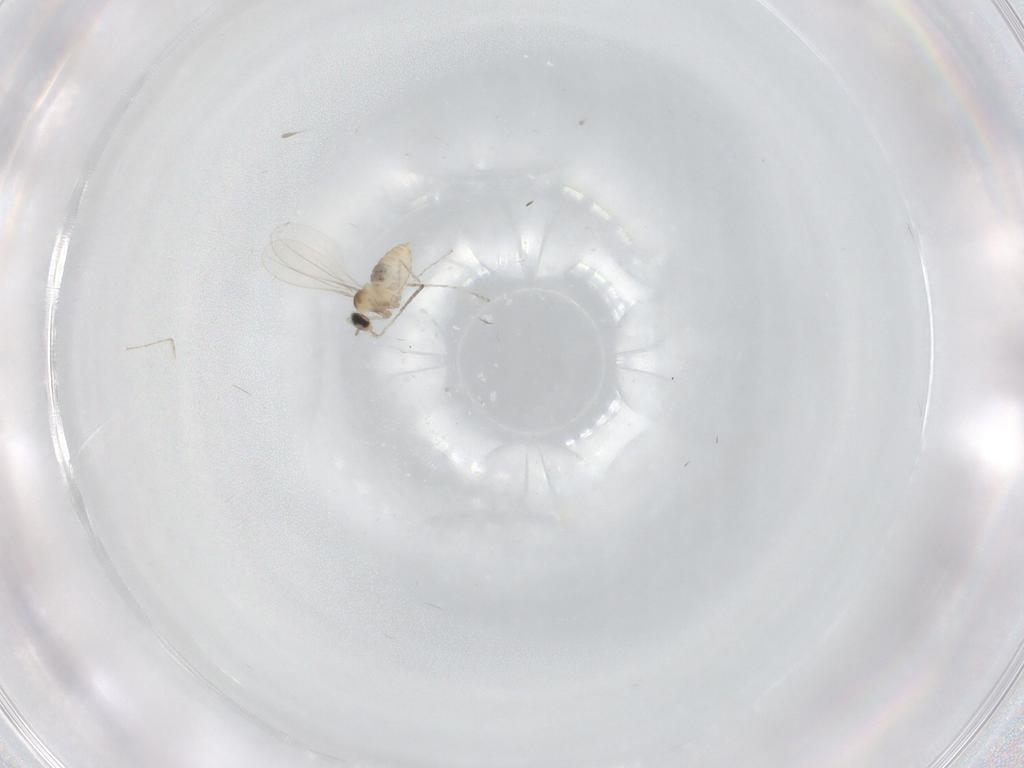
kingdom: Animalia
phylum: Arthropoda
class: Insecta
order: Diptera
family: Cecidomyiidae
